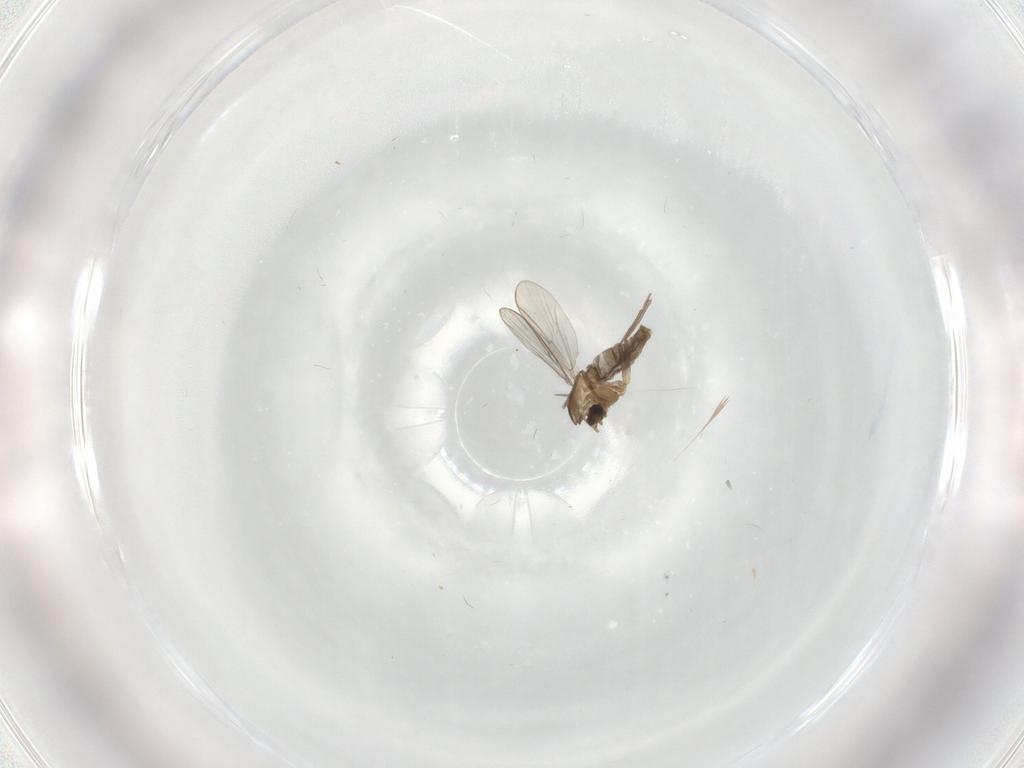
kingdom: Animalia
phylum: Arthropoda
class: Insecta
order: Diptera
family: Chironomidae
